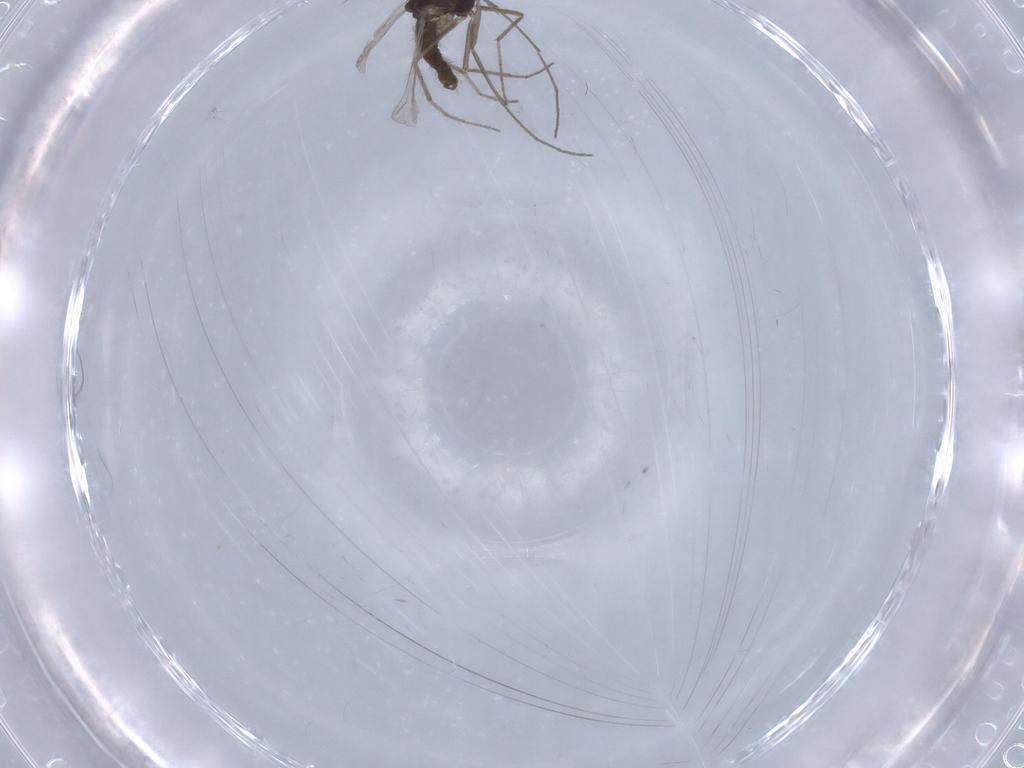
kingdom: Animalia
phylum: Arthropoda
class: Insecta
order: Diptera
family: Chironomidae
